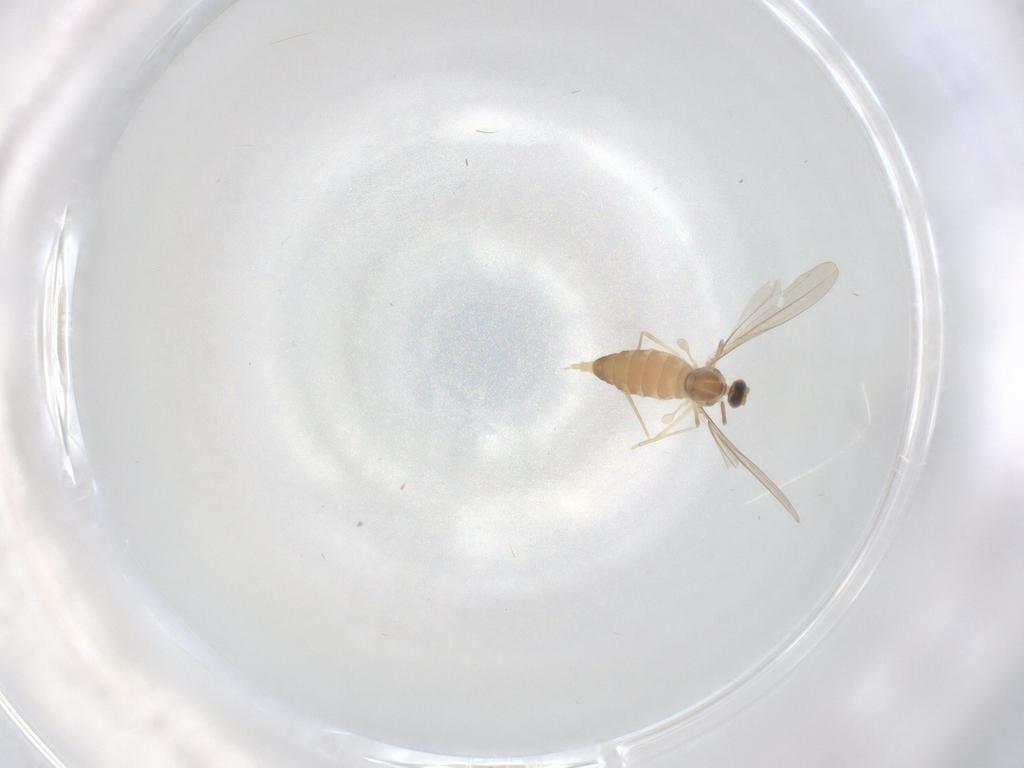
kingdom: Animalia
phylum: Arthropoda
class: Insecta
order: Diptera
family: Cecidomyiidae
